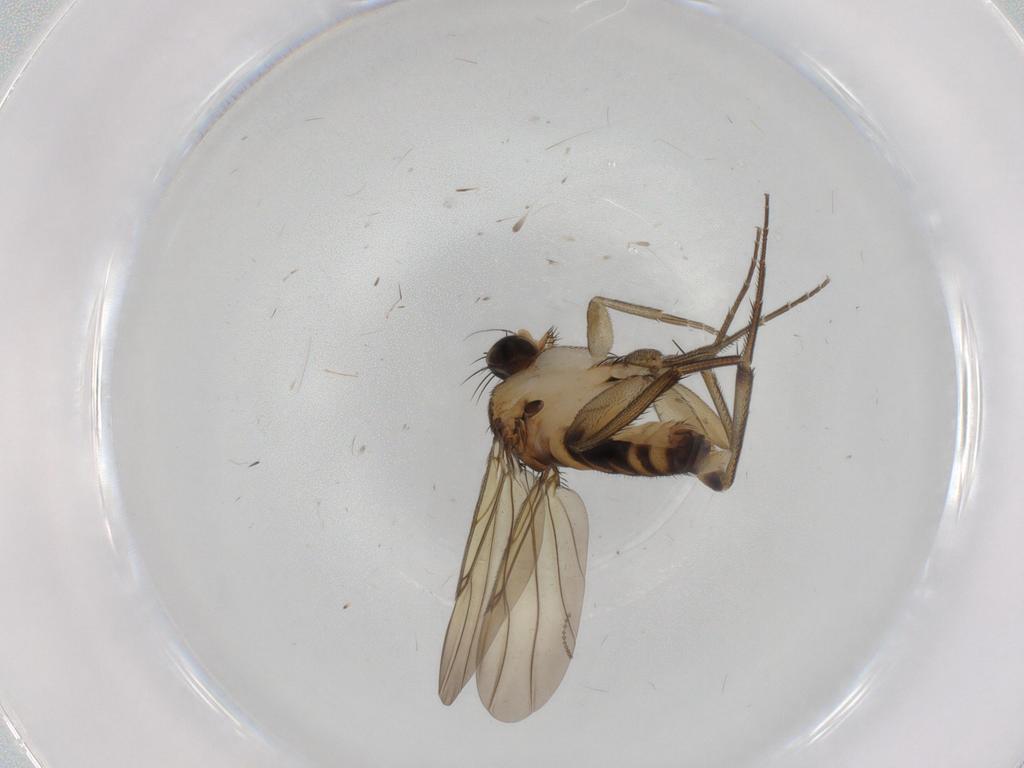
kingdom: Animalia
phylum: Arthropoda
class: Insecta
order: Diptera
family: Phoridae
